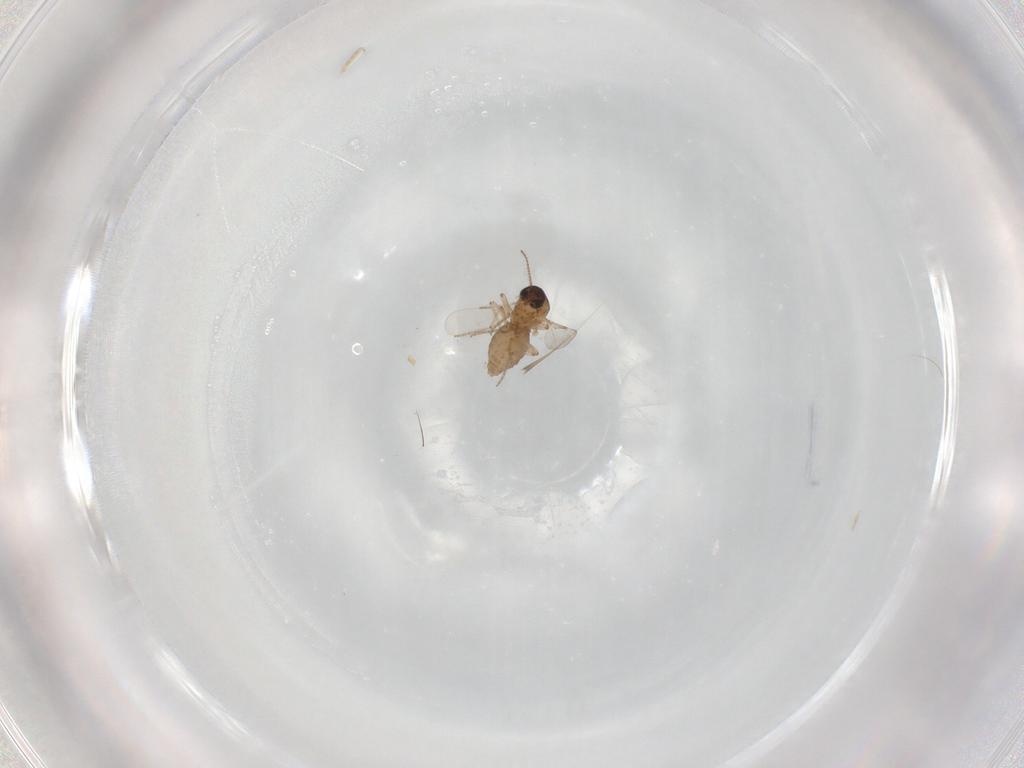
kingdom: Animalia
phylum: Arthropoda
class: Insecta
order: Diptera
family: Ceratopogonidae
